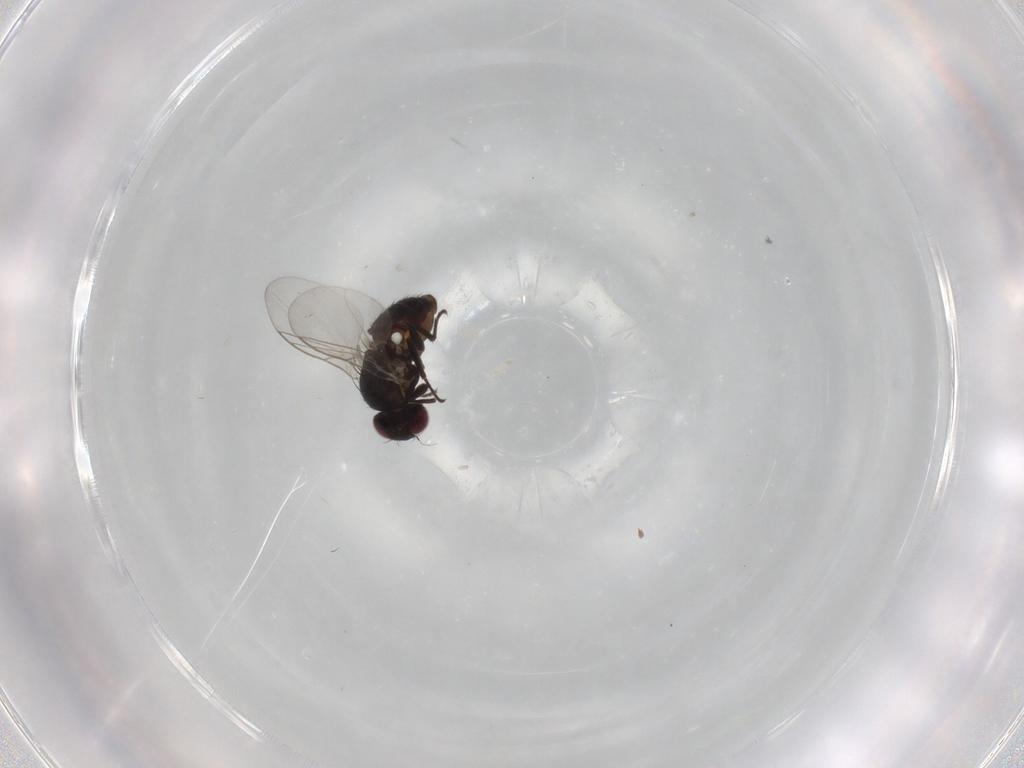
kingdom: Animalia
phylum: Arthropoda
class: Insecta
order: Diptera
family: Agromyzidae
